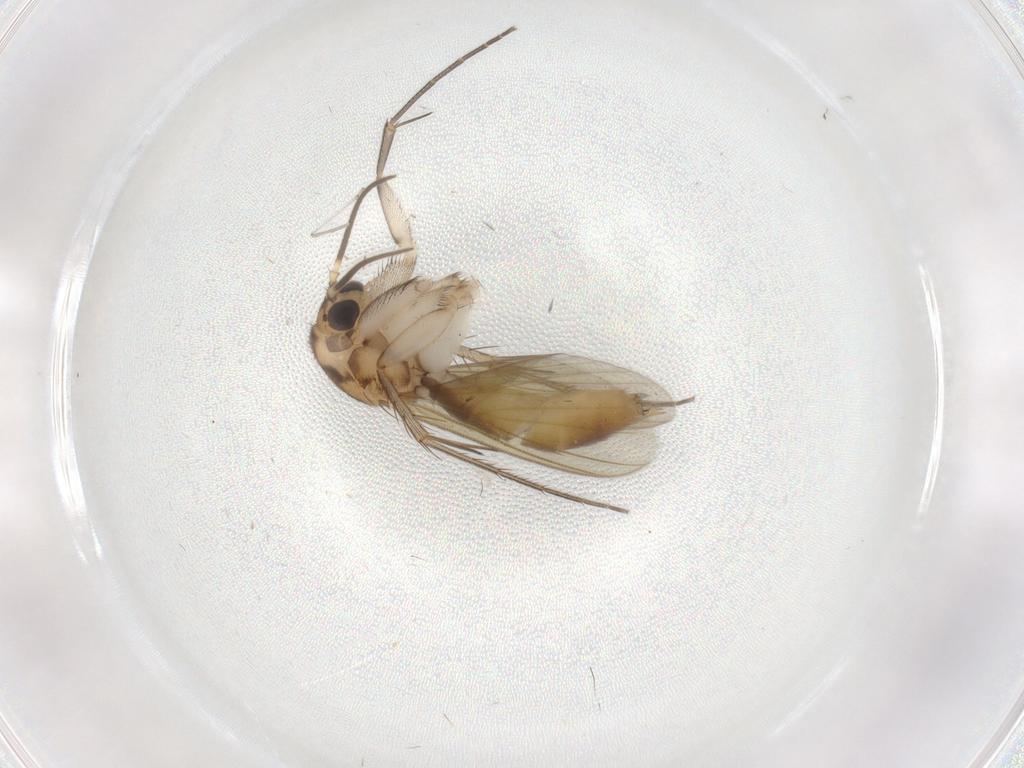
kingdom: Animalia
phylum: Arthropoda
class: Insecta
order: Diptera
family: Mycetophilidae
